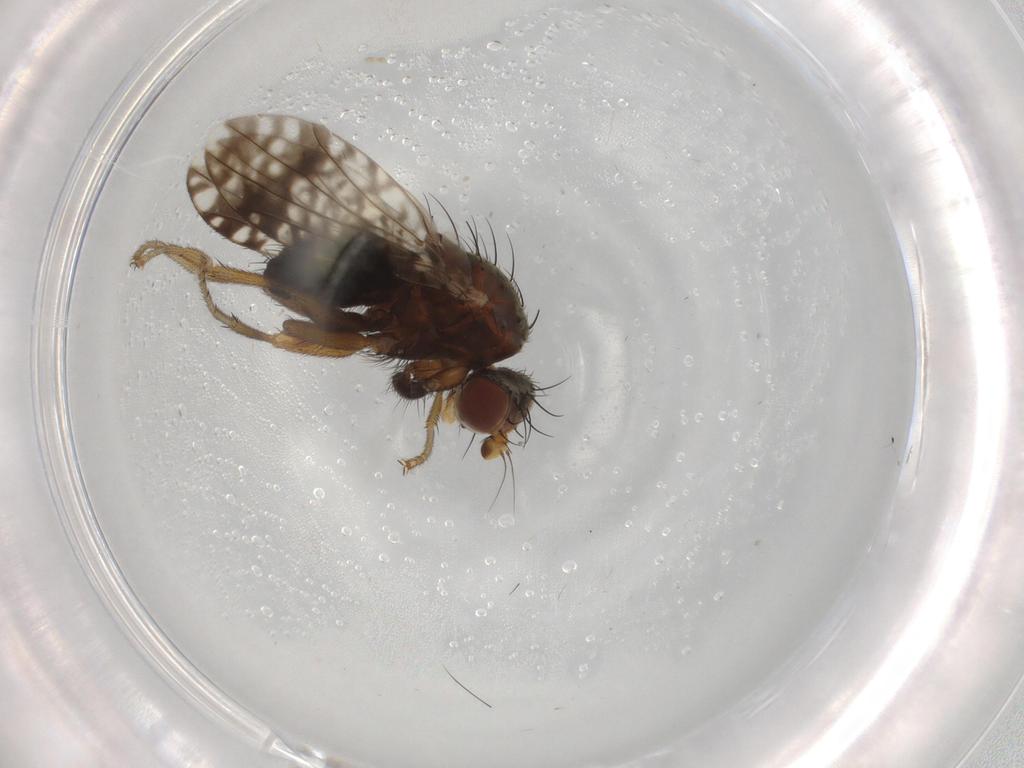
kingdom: Animalia
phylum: Arthropoda
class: Insecta
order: Diptera
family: Tephritidae
